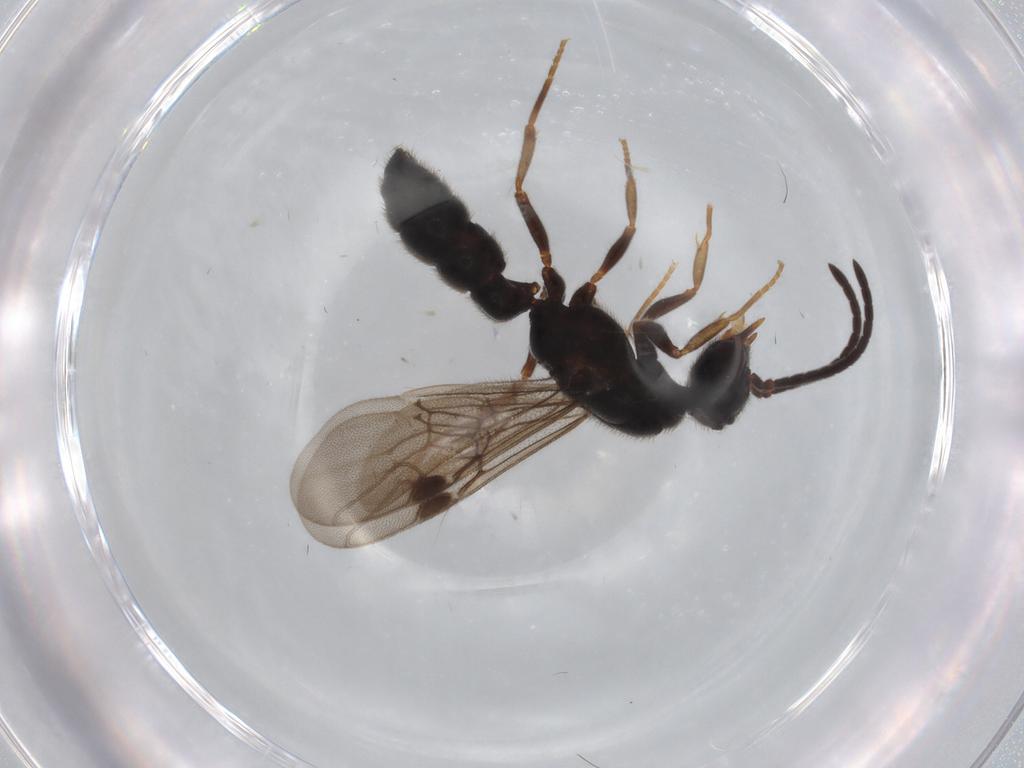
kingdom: Animalia
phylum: Arthropoda
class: Insecta
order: Hymenoptera
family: Formicidae
